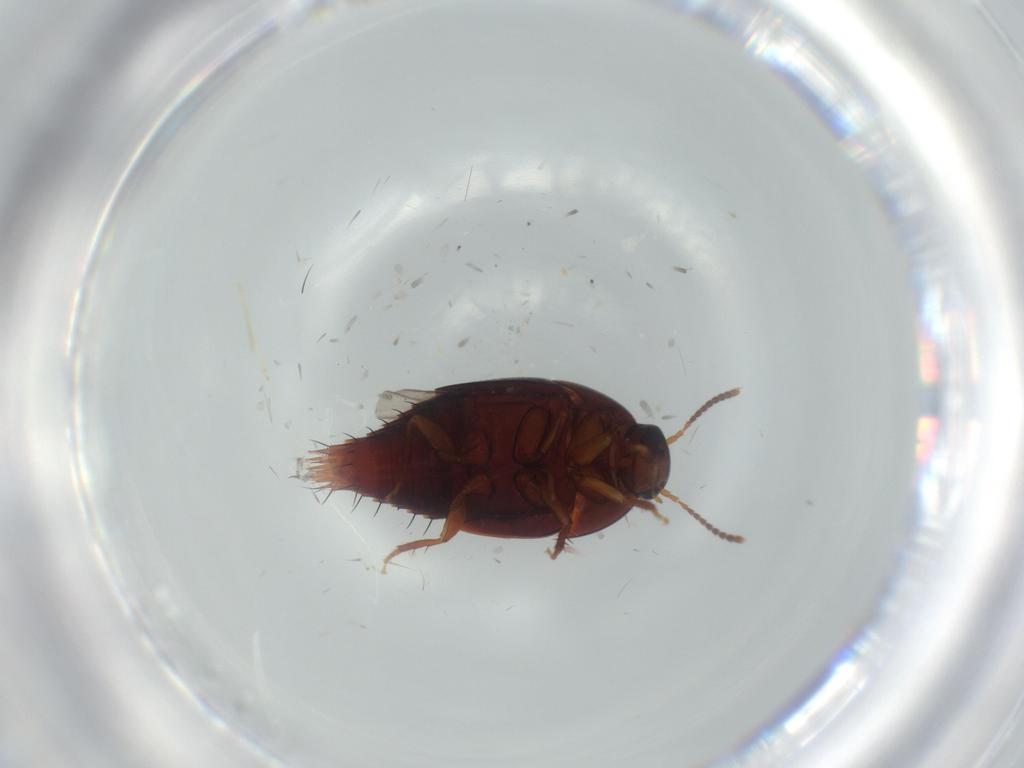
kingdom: Animalia
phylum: Arthropoda
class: Insecta
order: Coleoptera
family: Staphylinidae
